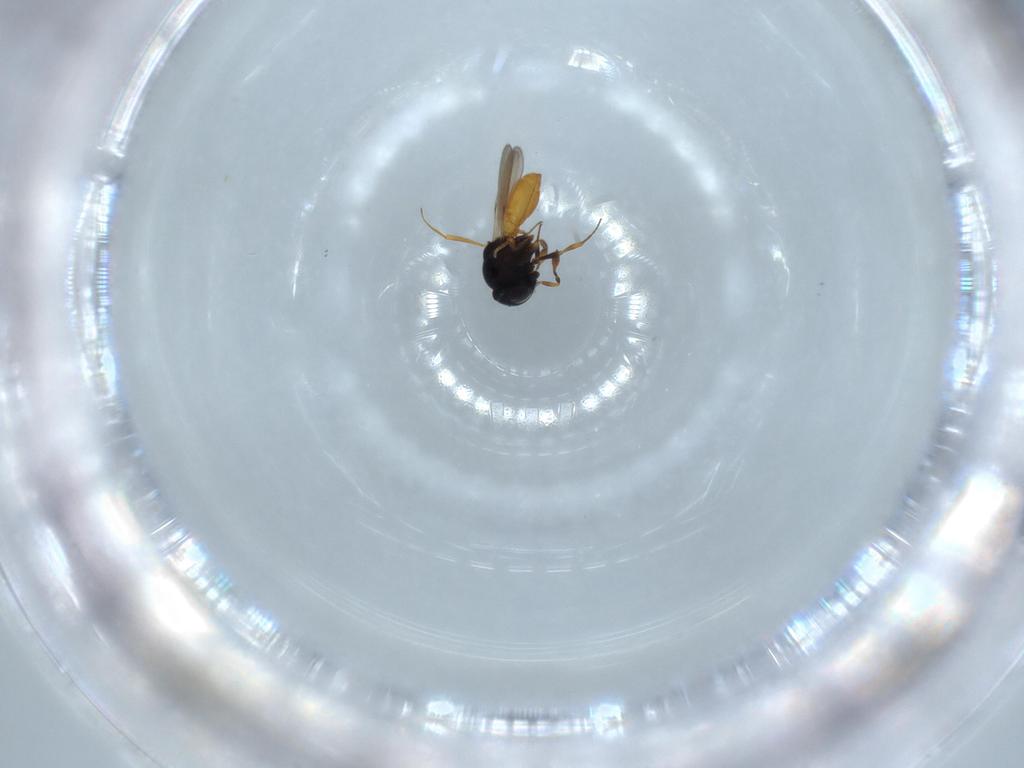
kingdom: Animalia
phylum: Arthropoda
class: Insecta
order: Hymenoptera
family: Scelionidae
